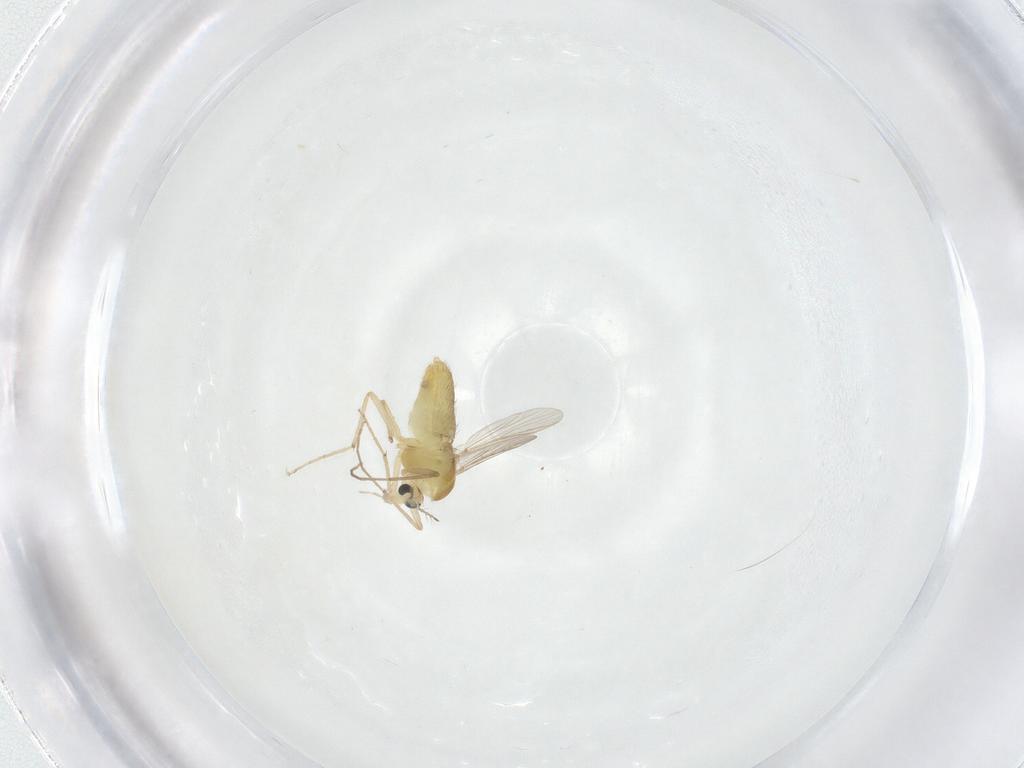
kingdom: Animalia
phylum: Arthropoda
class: Insecta
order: Diptera
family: Chironomidae
